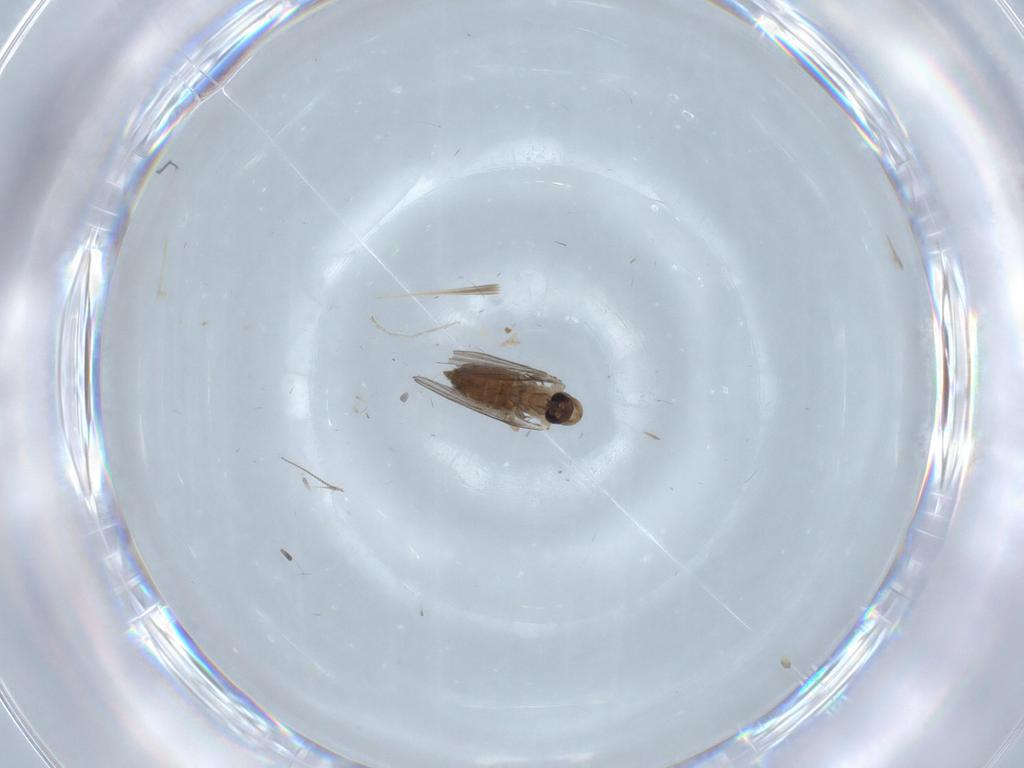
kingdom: Animalia
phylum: Arthropoda
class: Insecta
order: Diptera
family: Psychodidae
